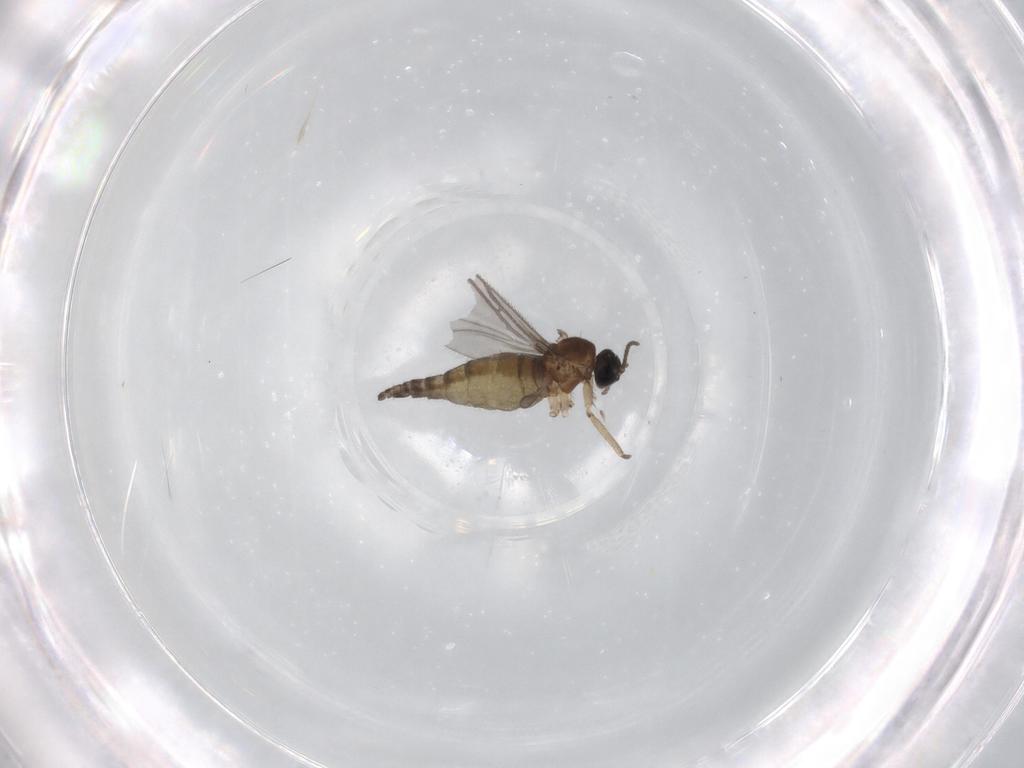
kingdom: Animalia
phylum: Arthropoda
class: Insecta
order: Diptera
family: Sciaridae
